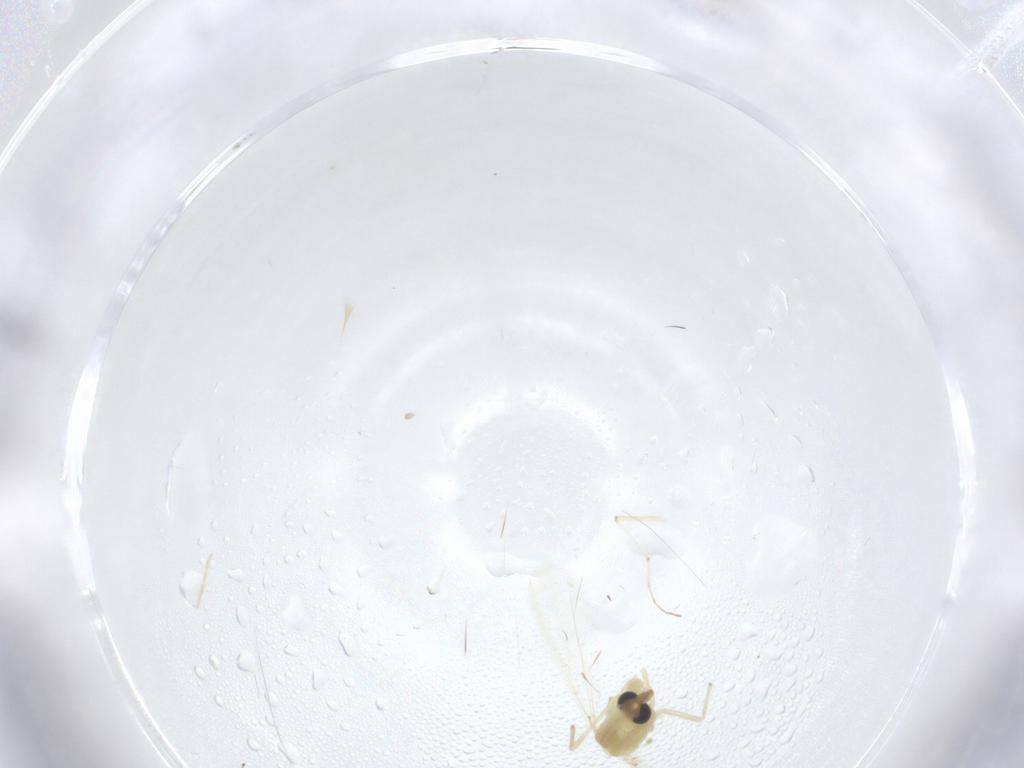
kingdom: Animalia
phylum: Arthropoda
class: Insecta
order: Diptera
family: Chironomidae
